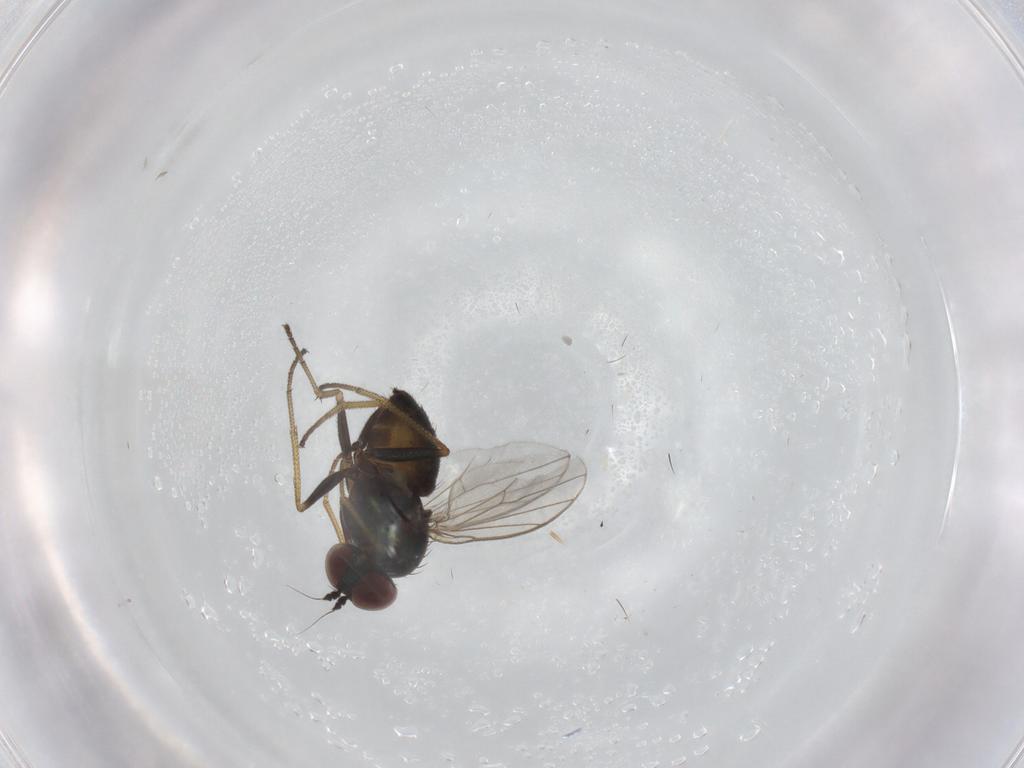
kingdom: Animalia
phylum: Arthropoda
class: Insecta
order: Diptera
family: Dolichopodidae
